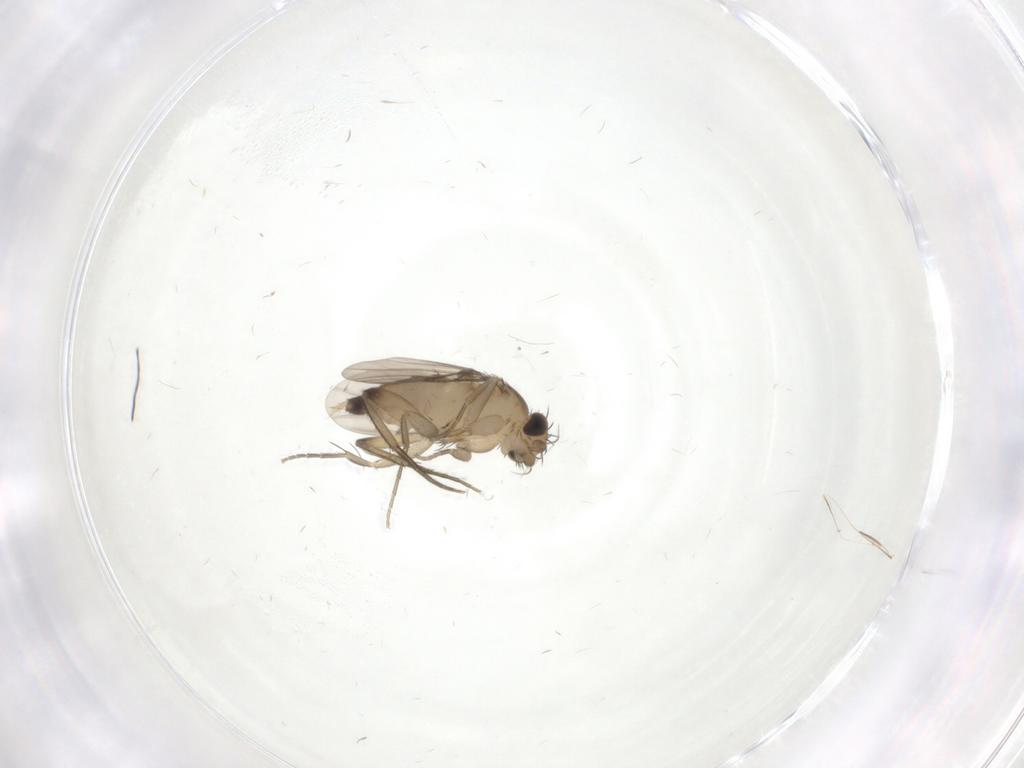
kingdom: Animalia
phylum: Arthropoda
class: Insecta
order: Diptera
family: Phoridae
